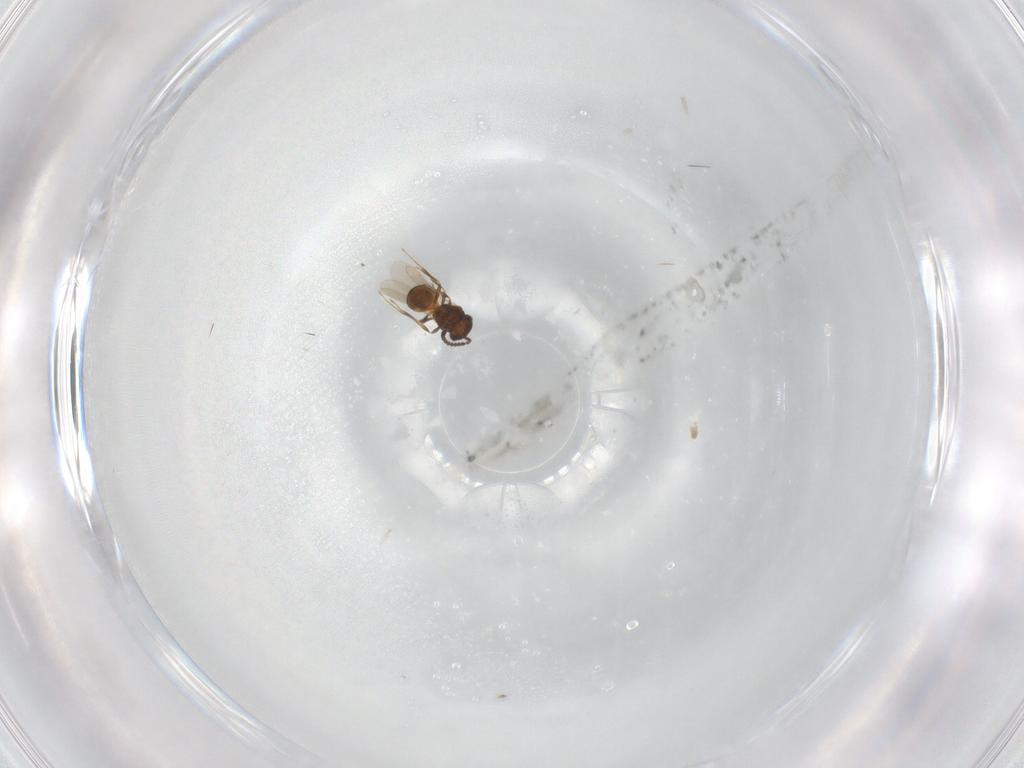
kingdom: Animalia
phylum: Arthropoda
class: Insecta
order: Hymenoptera
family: Scelionidae
